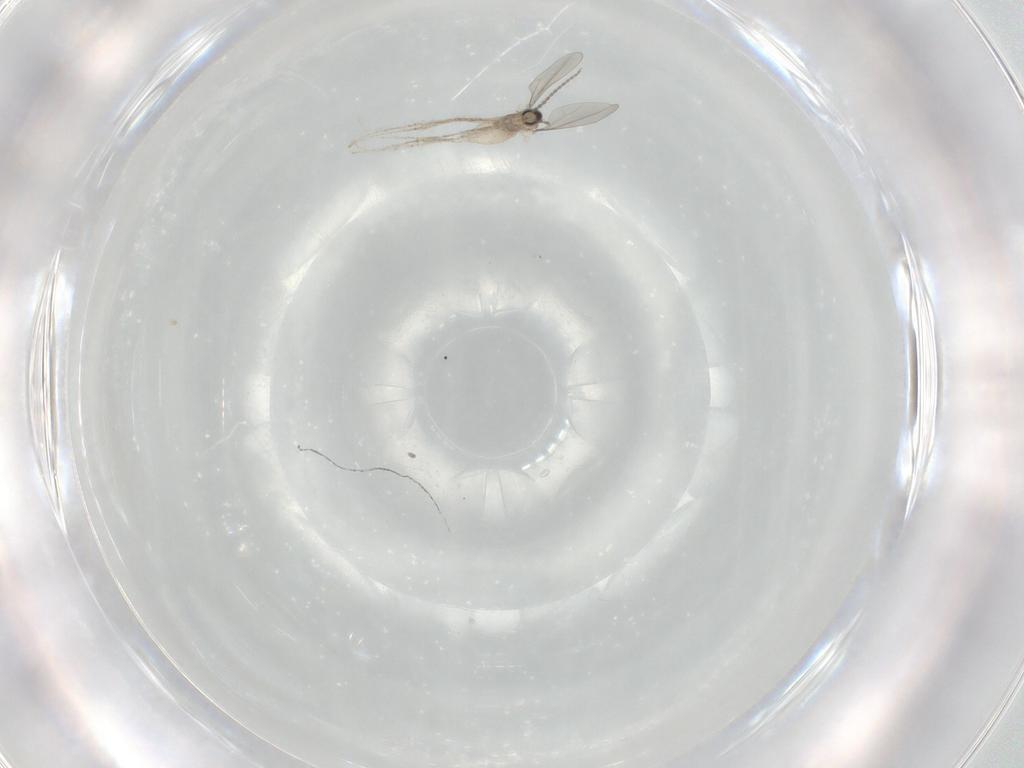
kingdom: Animalia
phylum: Arthropoda
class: Insecta
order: Diptera
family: Cecidomyiidae
